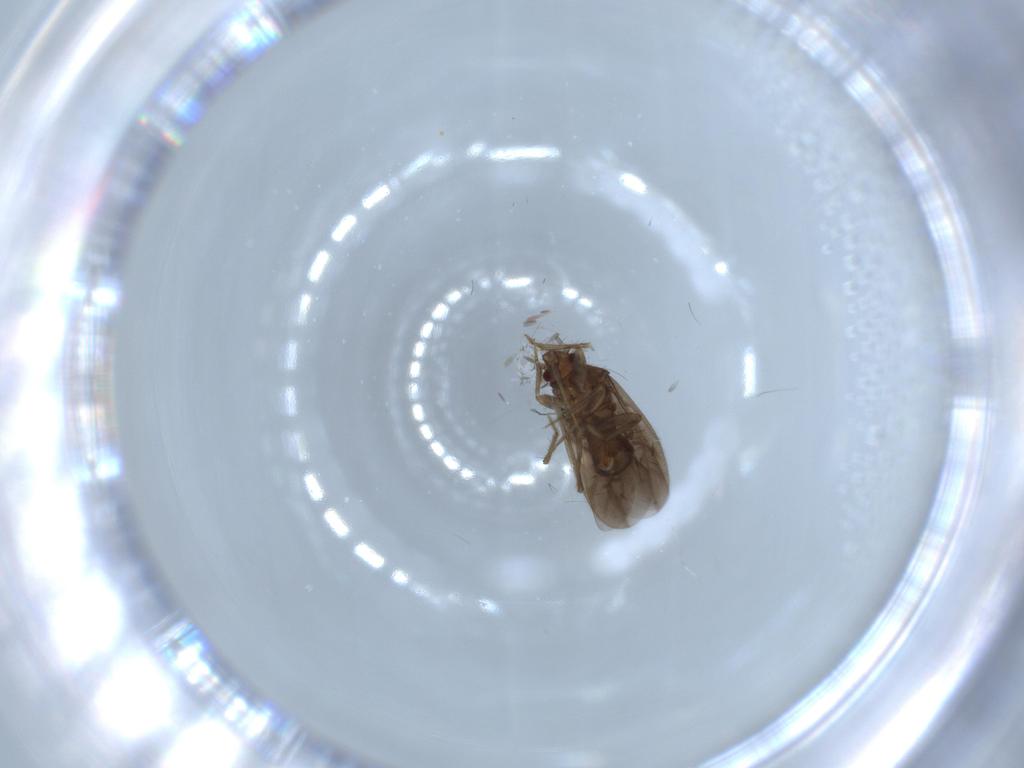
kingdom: Animalia
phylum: Arthropoda
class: Insecta
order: Hemiptera
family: Ceratocombidae
